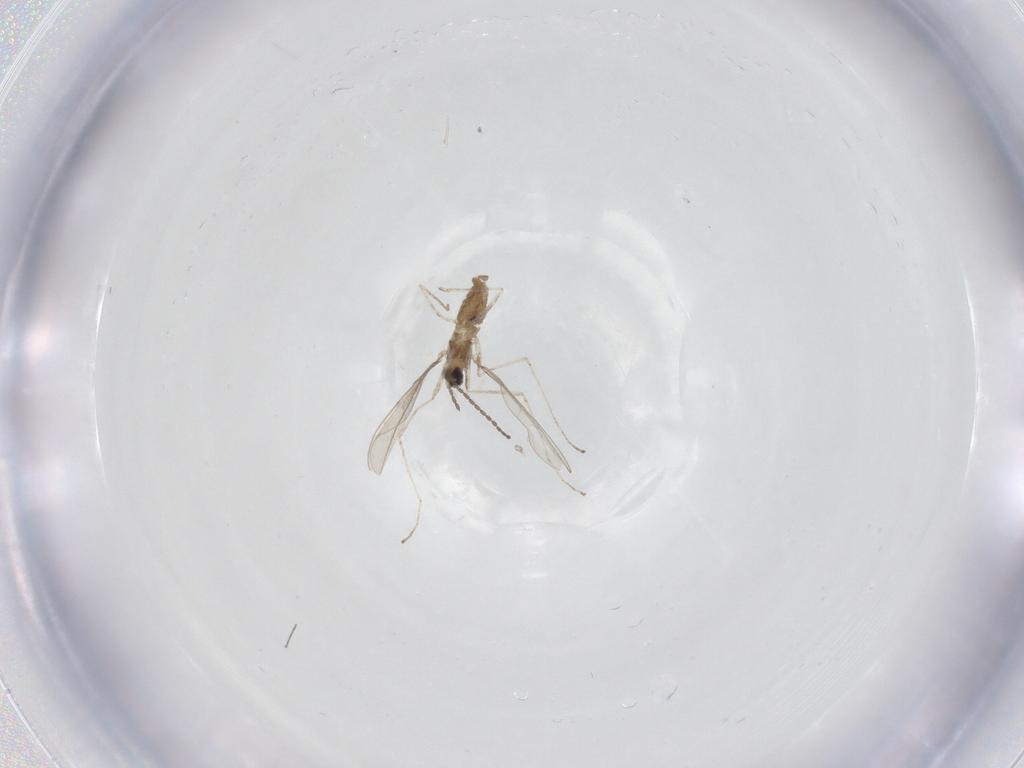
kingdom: Animalia
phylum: Arthropoda
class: Insecta
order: Diptera
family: Cecidomyiidae
